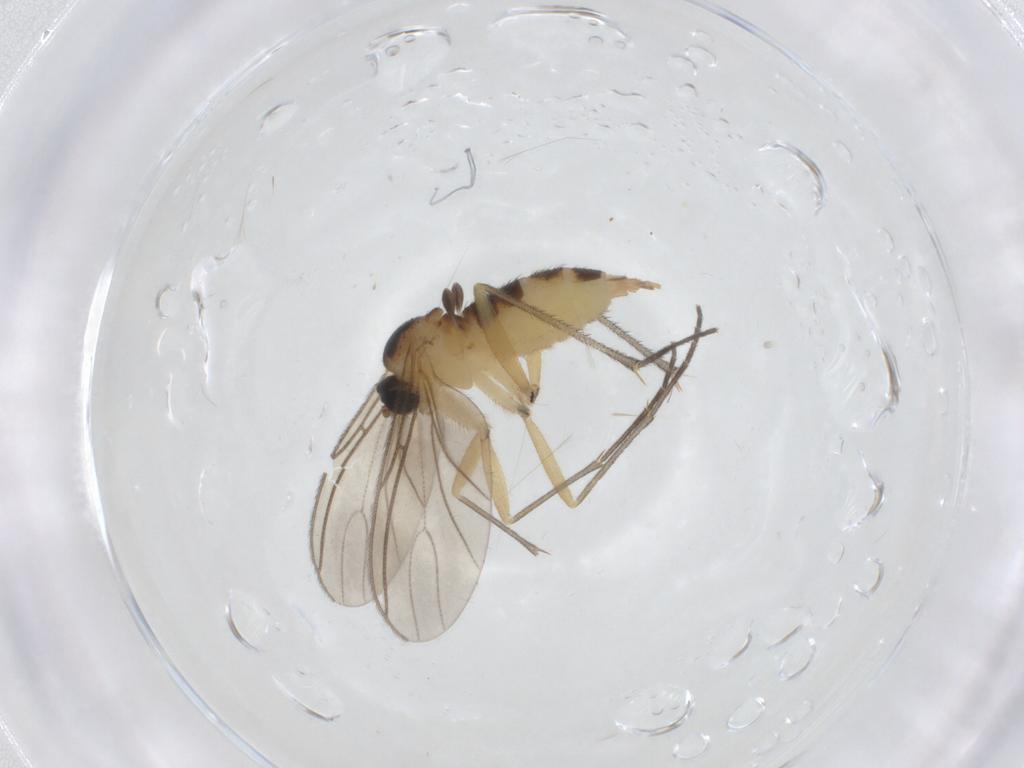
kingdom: Animalia
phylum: Arthropoda
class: Insecta
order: Diptera
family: Sciaridae
